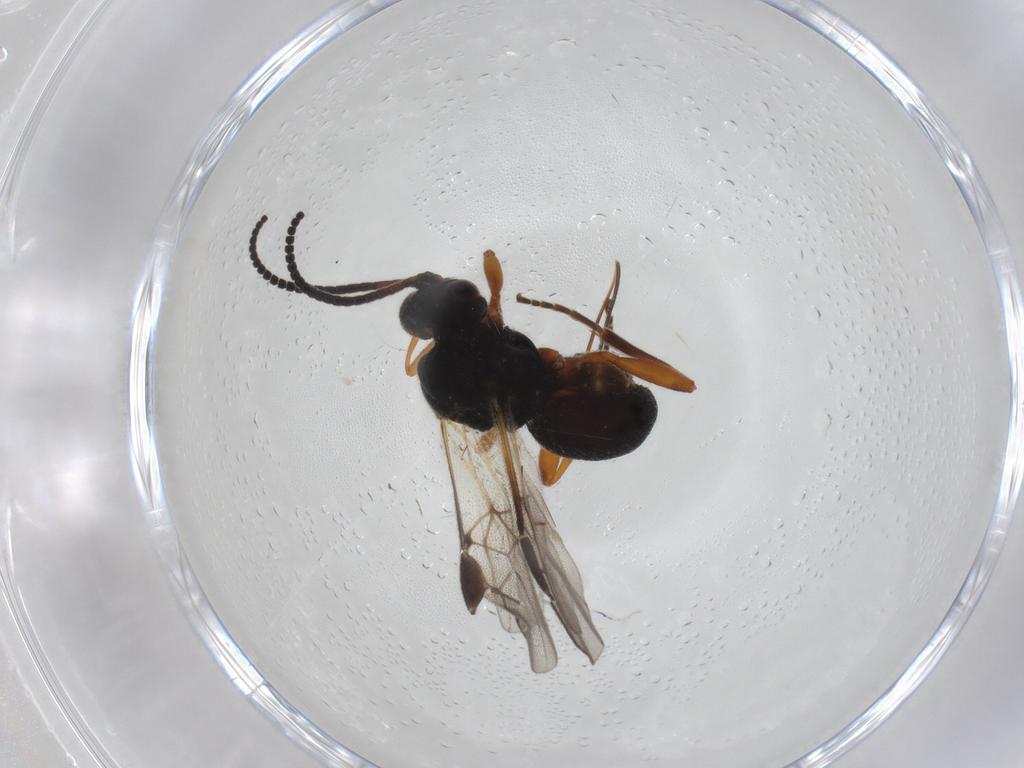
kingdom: Animalia
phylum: Arthropoda
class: Insecta
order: Hymenoptera
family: Braconidae
